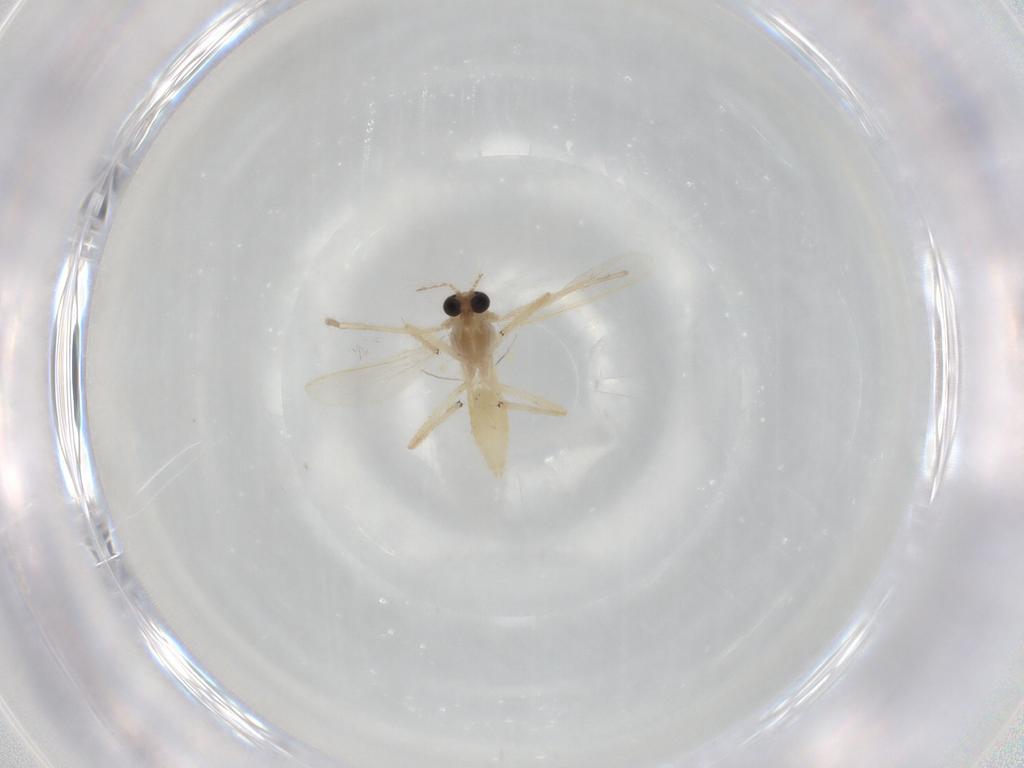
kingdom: Animalia
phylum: Arthropoda
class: Insecta
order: Diptera
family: Chironomidae
